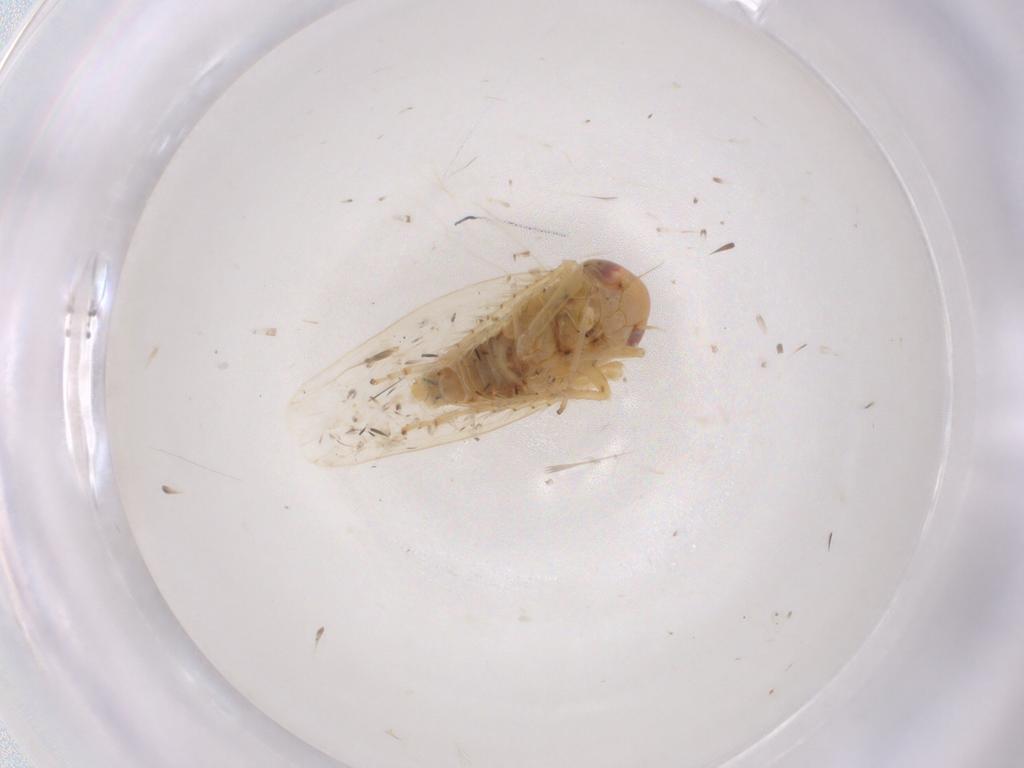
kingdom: Animalia
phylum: Arthropoda
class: Insecta
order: Hemiptera
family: Cicadellidae
